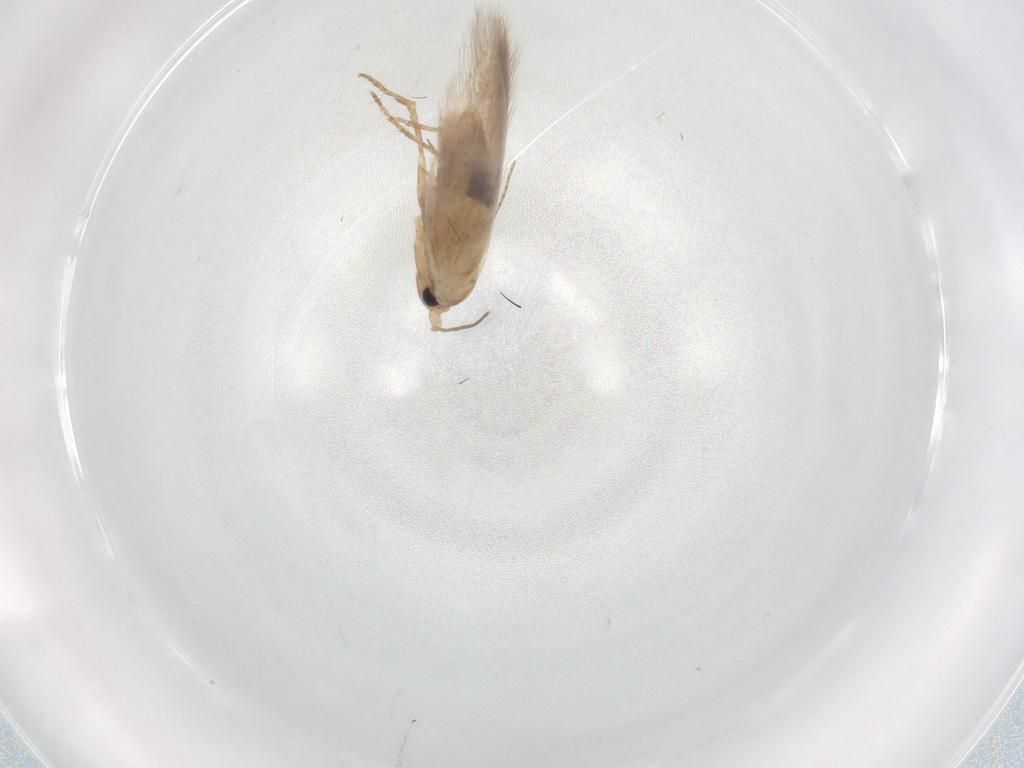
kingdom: Animalia
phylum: Arthropoda
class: Insecta
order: Lepidoptera
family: Bucculatricidae
